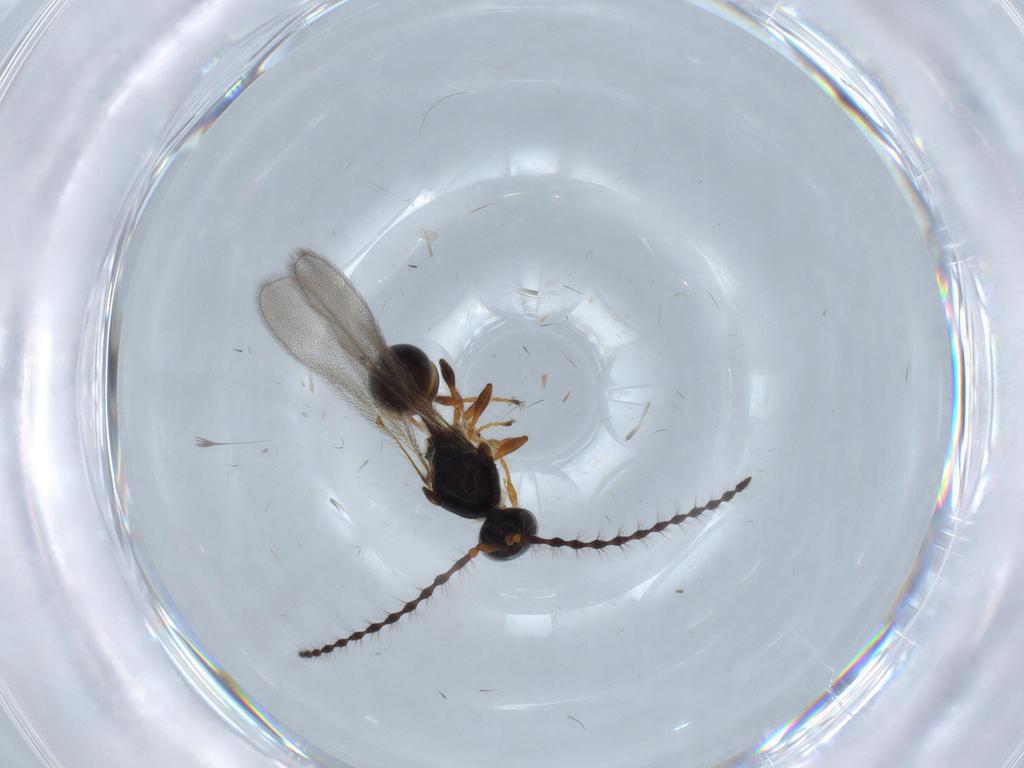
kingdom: Animalia
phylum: Arthropoda
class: Insecta
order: Hymenoptera
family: Diapriidae
